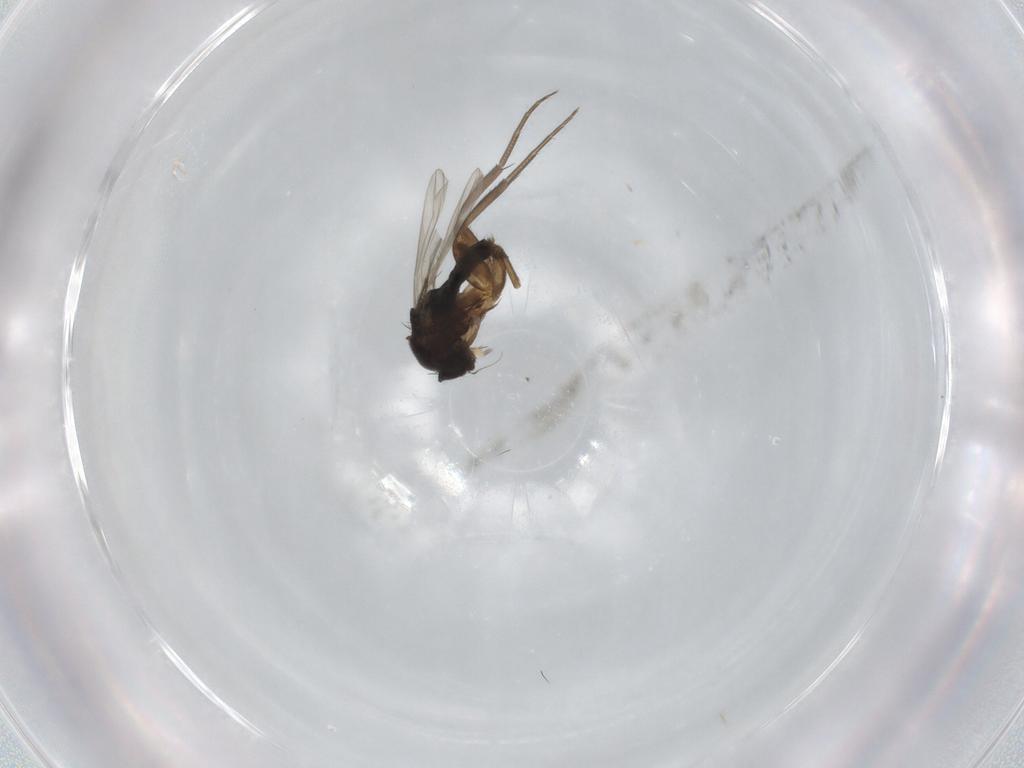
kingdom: Animalia
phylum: Arthropoda
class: Insecta
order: Diptera
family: Phoridae
